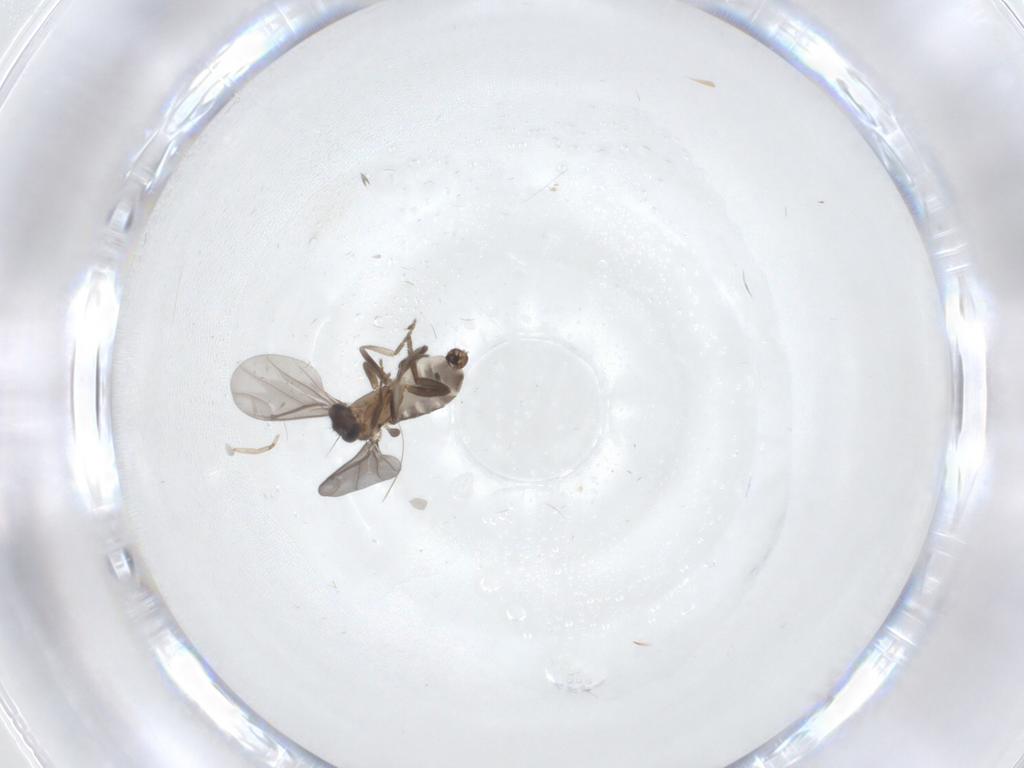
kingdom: Animalia
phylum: Arthropoda
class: Insecta
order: Diptera
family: Phoridae
